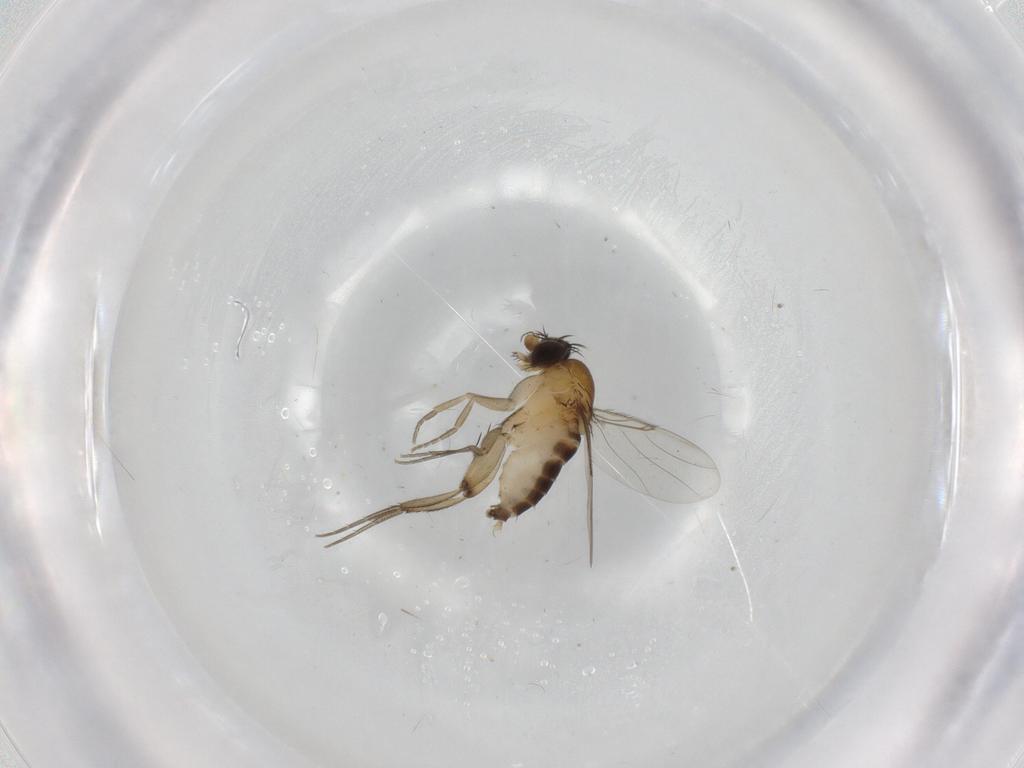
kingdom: Animalia
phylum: Arthropoda
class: Insecta
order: Diptera
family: Phoridae
